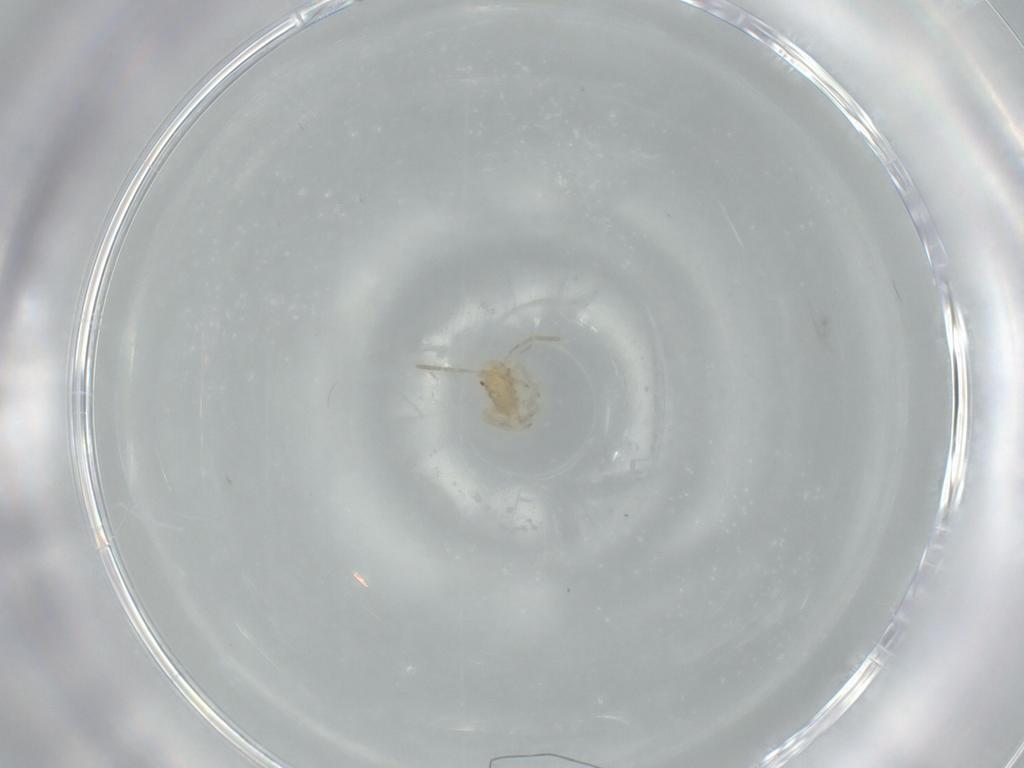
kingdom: Animalia
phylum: Arthropoda
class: Insecta
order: Hemiptera
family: Miridae
